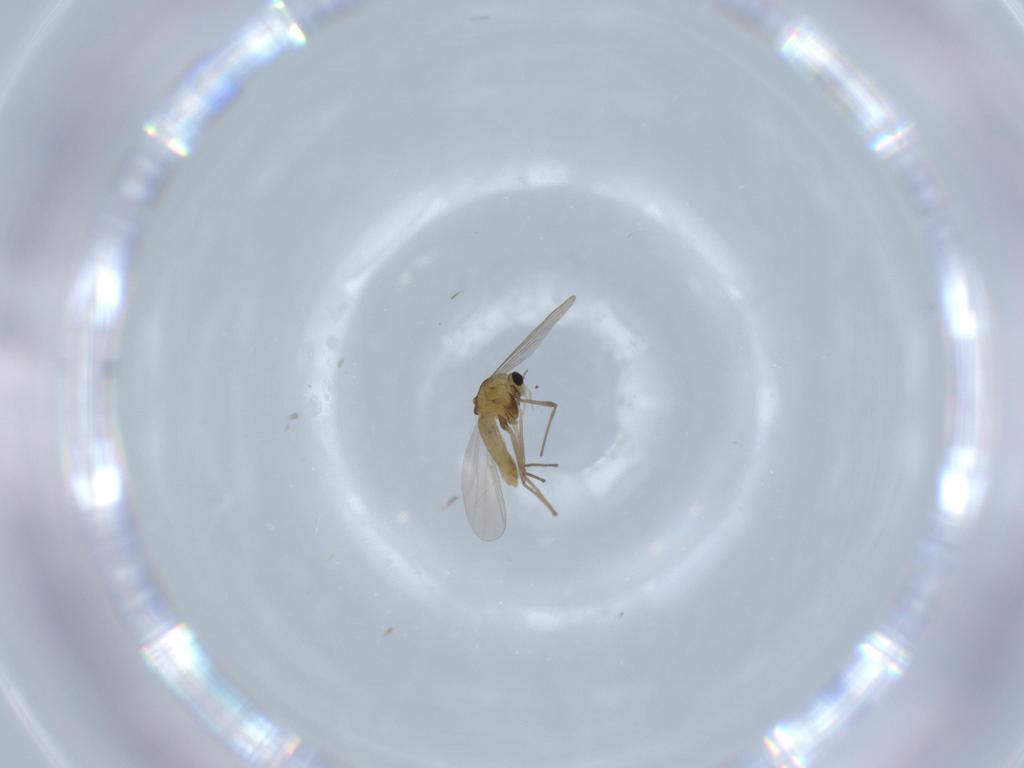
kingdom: Animalia
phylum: Arthropoda
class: Insecta
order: Diptera
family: Chironomidae
